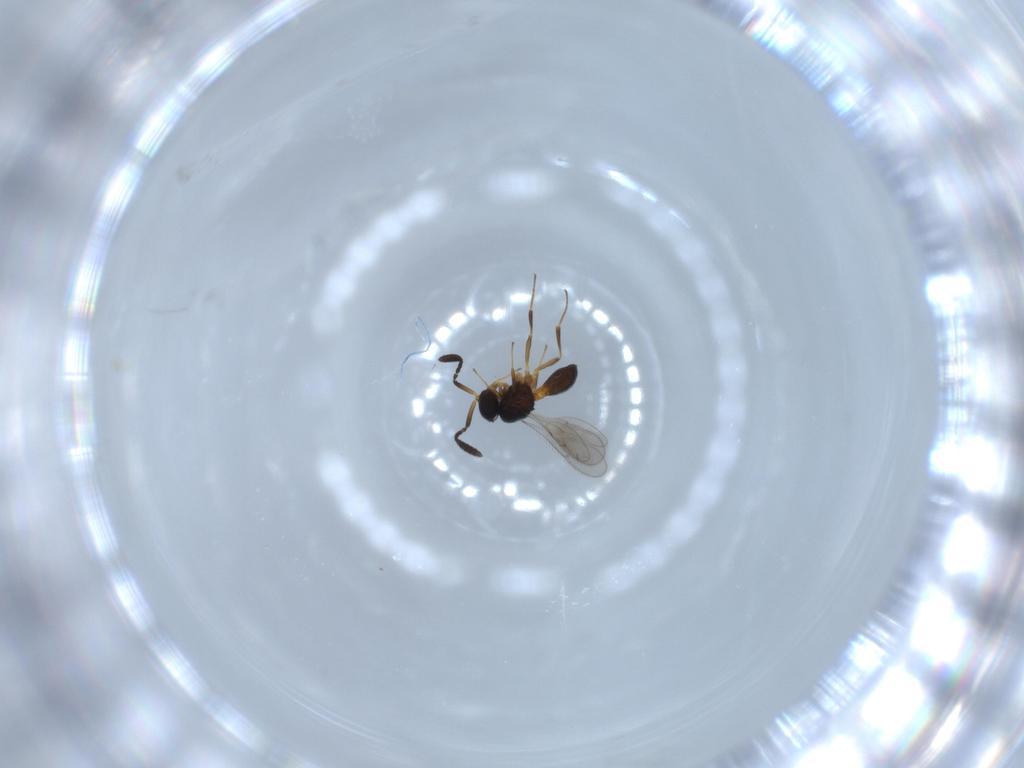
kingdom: Animalia
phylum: Arthropoda
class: Insecta
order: Hymenoptera
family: Scelionidae
